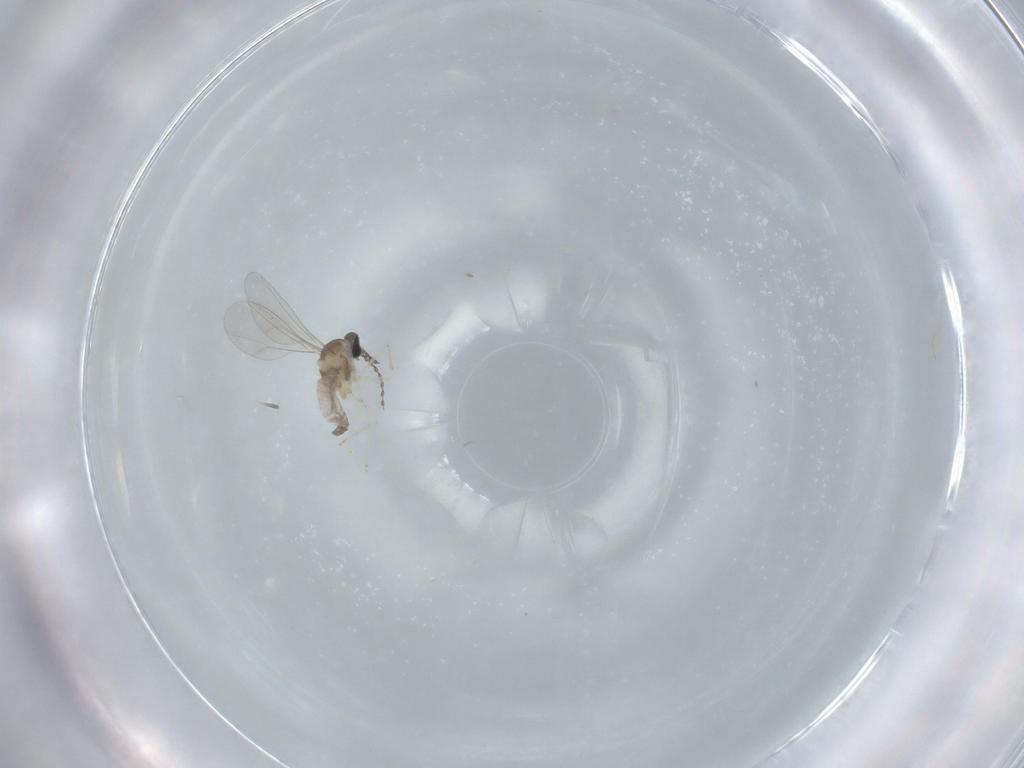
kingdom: Animalia
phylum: Arthropoda
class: Insecta
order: Diptera
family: Cecidomyiidae
